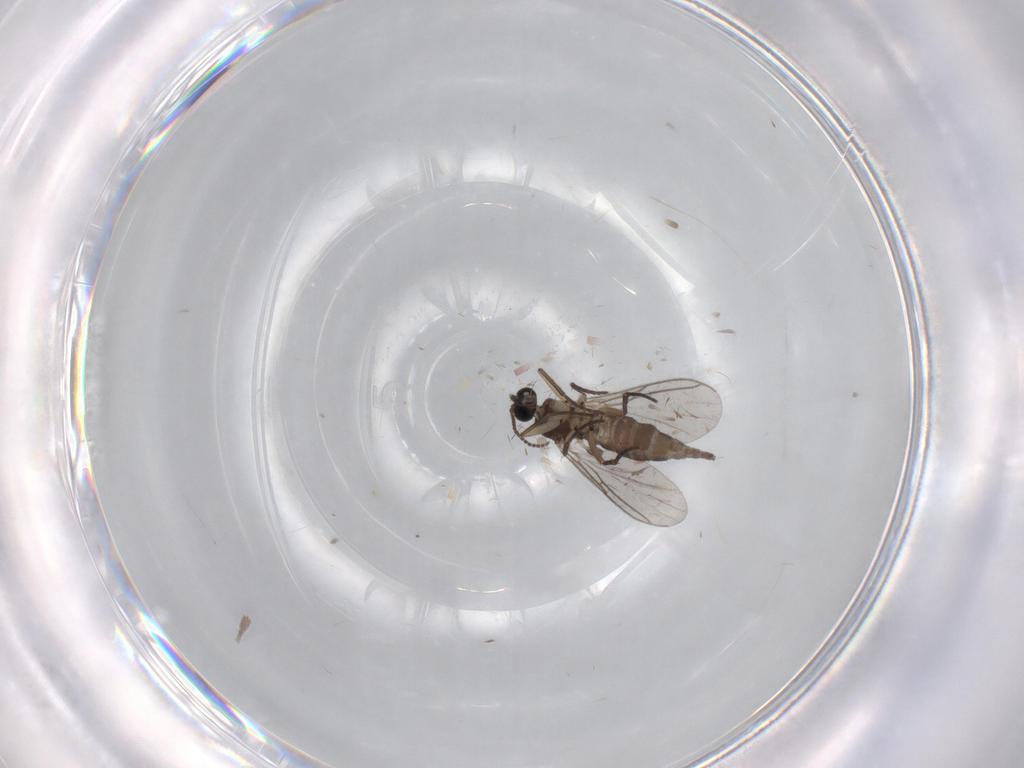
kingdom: Animalia
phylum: Arthropoda
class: Insecta
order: Diptera
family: Sciaridae
